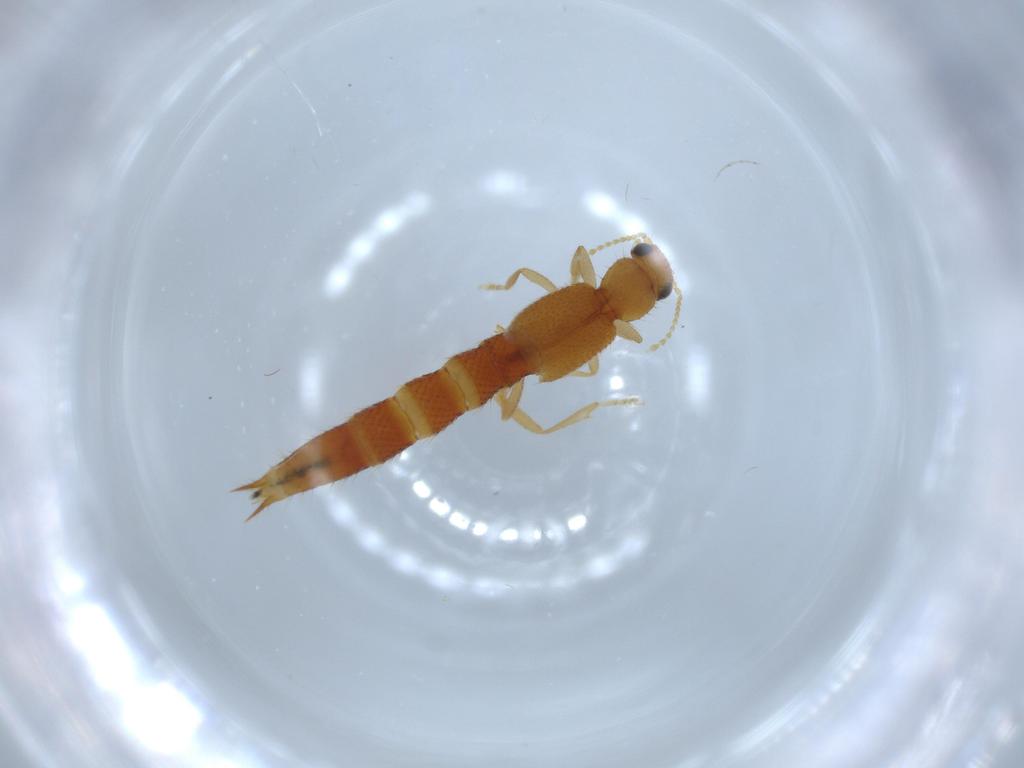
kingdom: Animalia
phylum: Arthropoda
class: Insecta
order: Coleoptera
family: Staphylinidae
